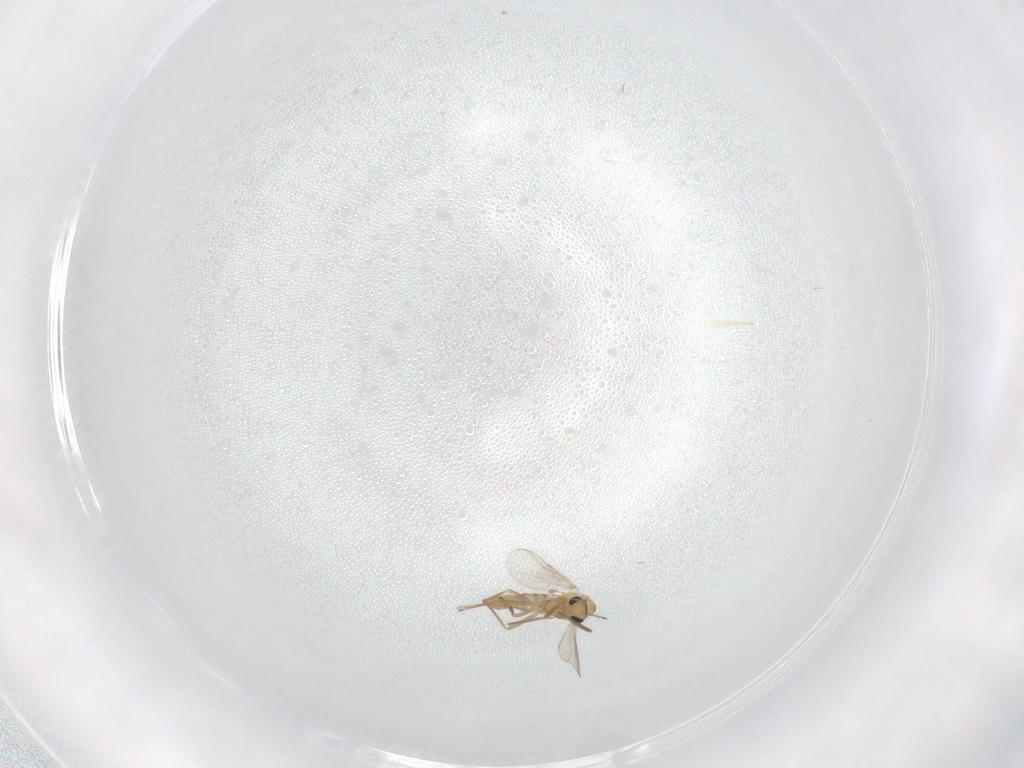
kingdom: Animalia
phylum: Arthropoda
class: Insecta
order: Diptera
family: Chironomidae
